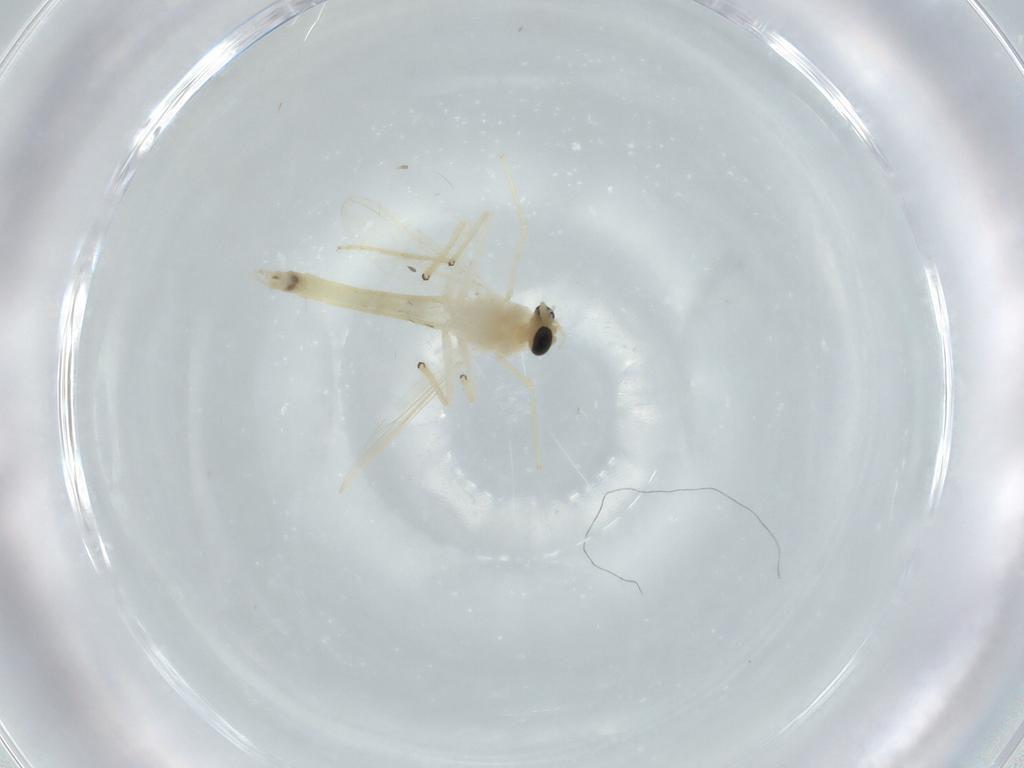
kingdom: Animalia
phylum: Arthropoda
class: Insecta
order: Diptera
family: Chironomidae
